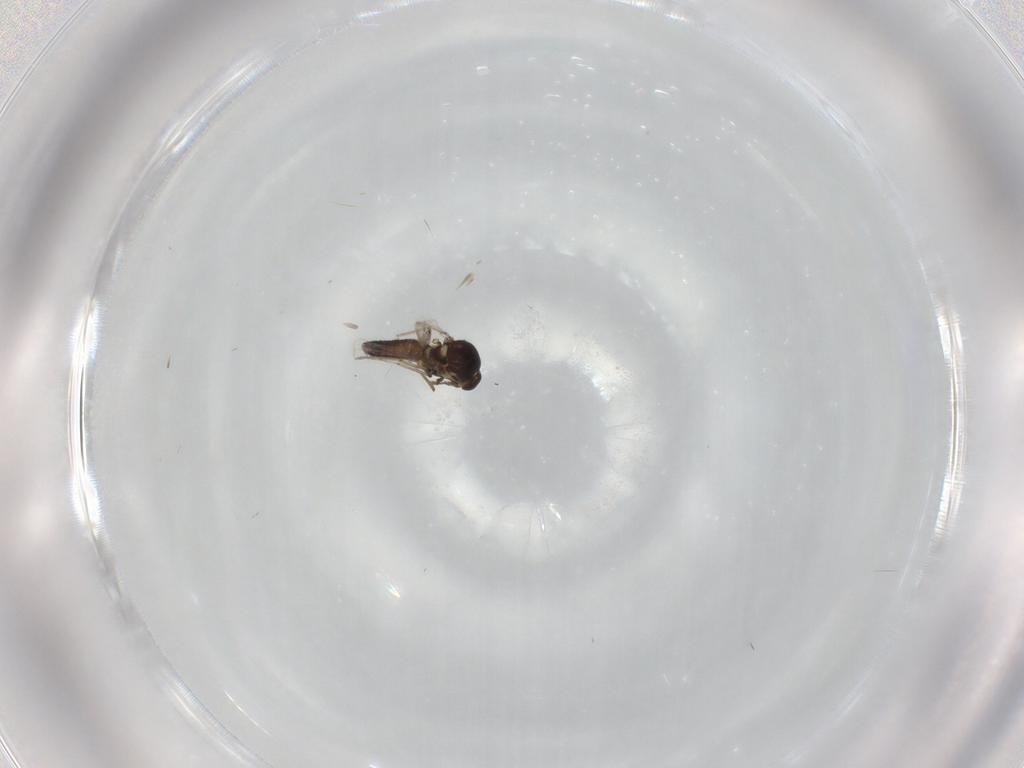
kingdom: Animalia
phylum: Arthropoda
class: Insecta
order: Diptera
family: Ceratopogonidae
